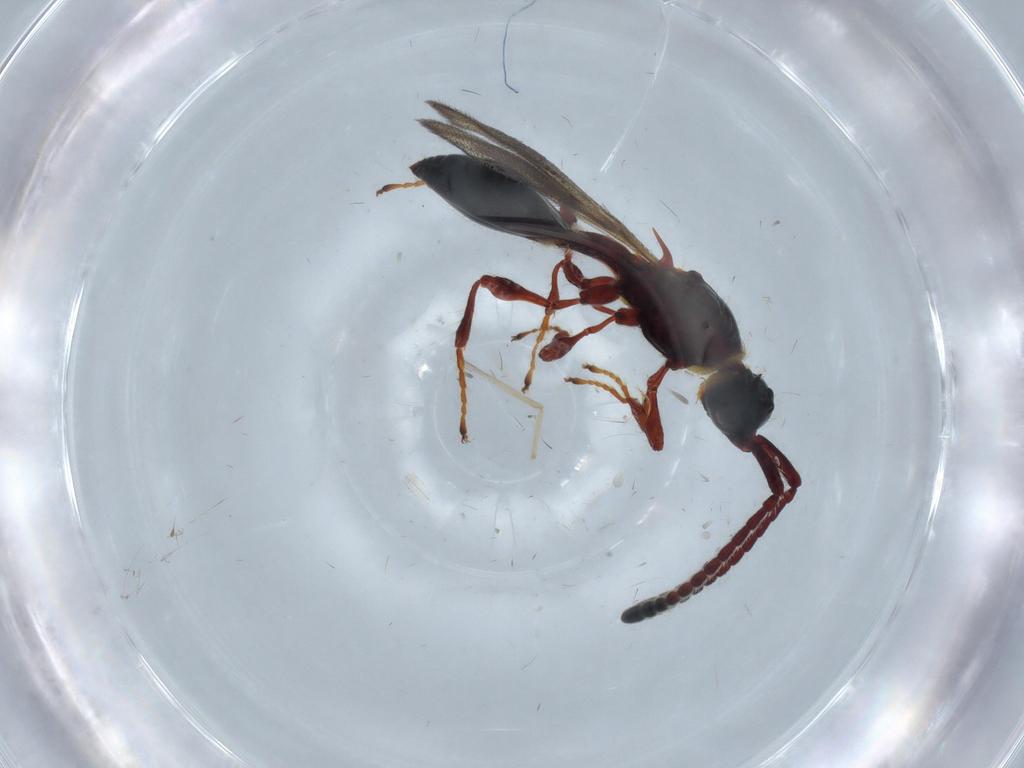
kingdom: Animalia
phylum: Arthropoda
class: Insecta
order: Hymenoptera
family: Diapriidae
